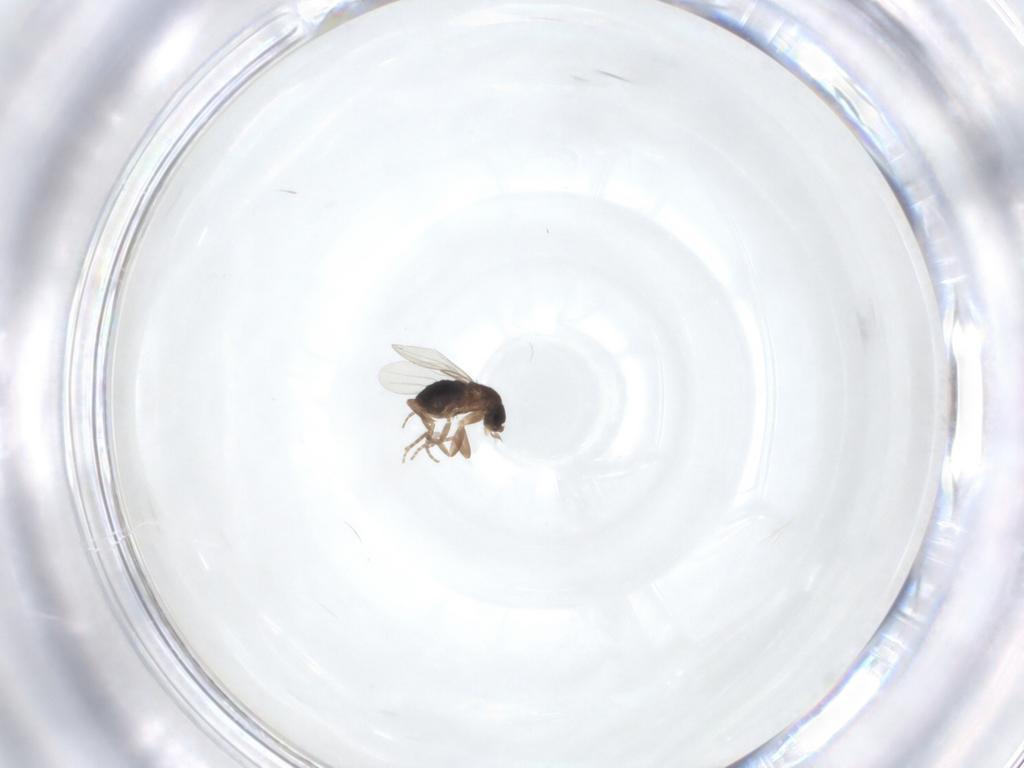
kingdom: Animalia
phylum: Arthropoda
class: Insecta
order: Diptera
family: Phoridae
